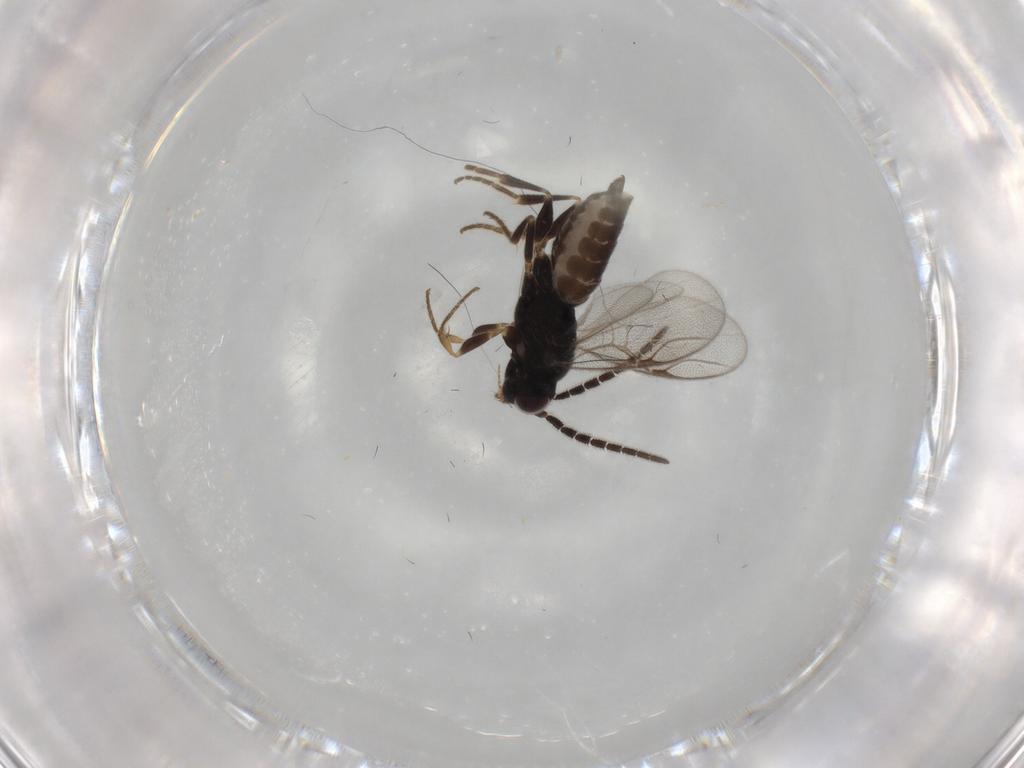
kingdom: Animalia
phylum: Arthropoda
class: Insecta
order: Hymenoptera
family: Dryinidae
